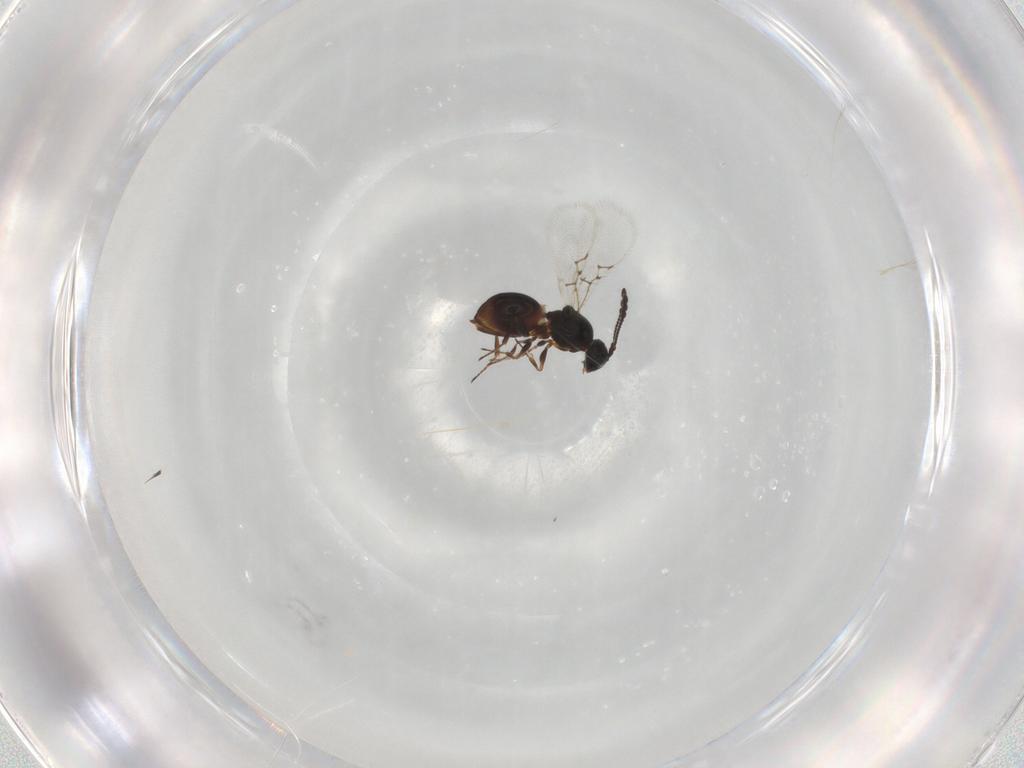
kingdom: Animalia
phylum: Arthropoda
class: Insecta
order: Hymenoptera
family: Figitidae
